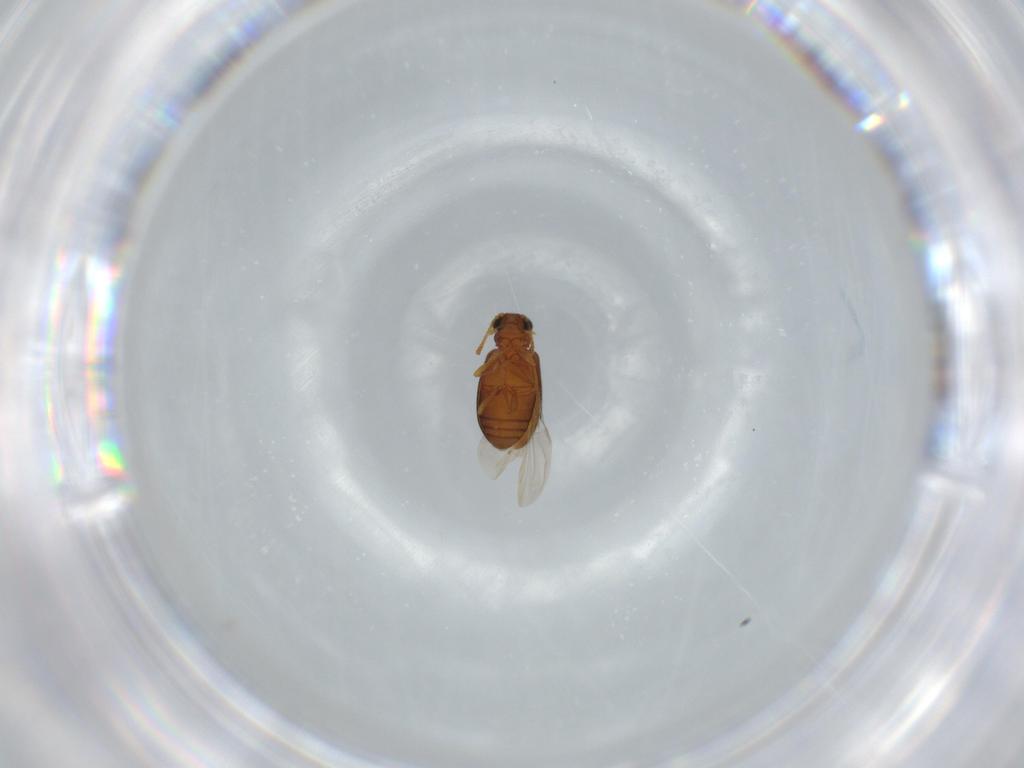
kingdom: Animalia
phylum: Arthropoda
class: Insecta
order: Coleoptera
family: Aderidae
